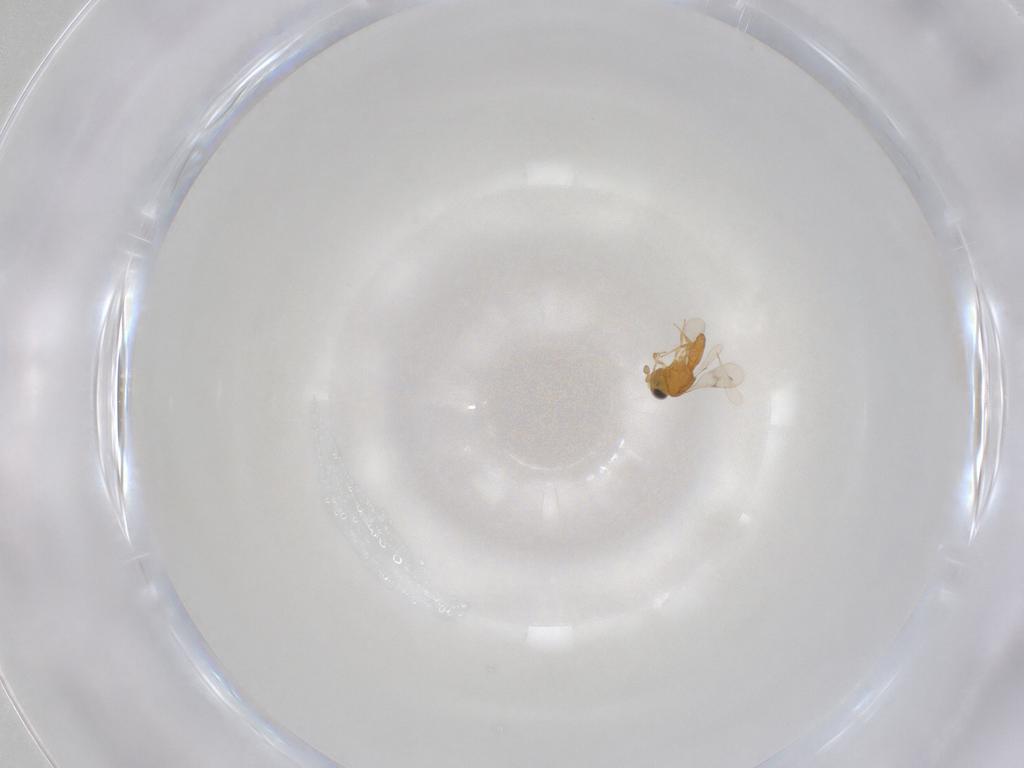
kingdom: Animalia
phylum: Arthropoda
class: Insecta
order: Hymenoptera
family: Scelionidae
